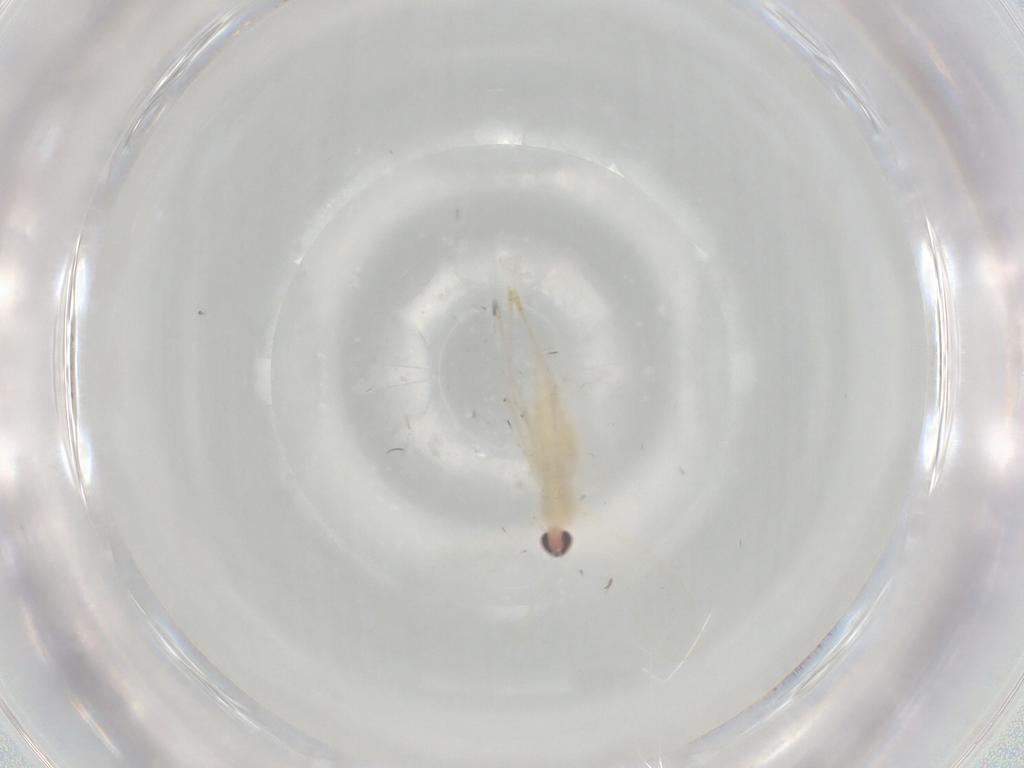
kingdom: Animalia
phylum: Arthropoda
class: Insecta
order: Diptera
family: Cecidomyiidae
